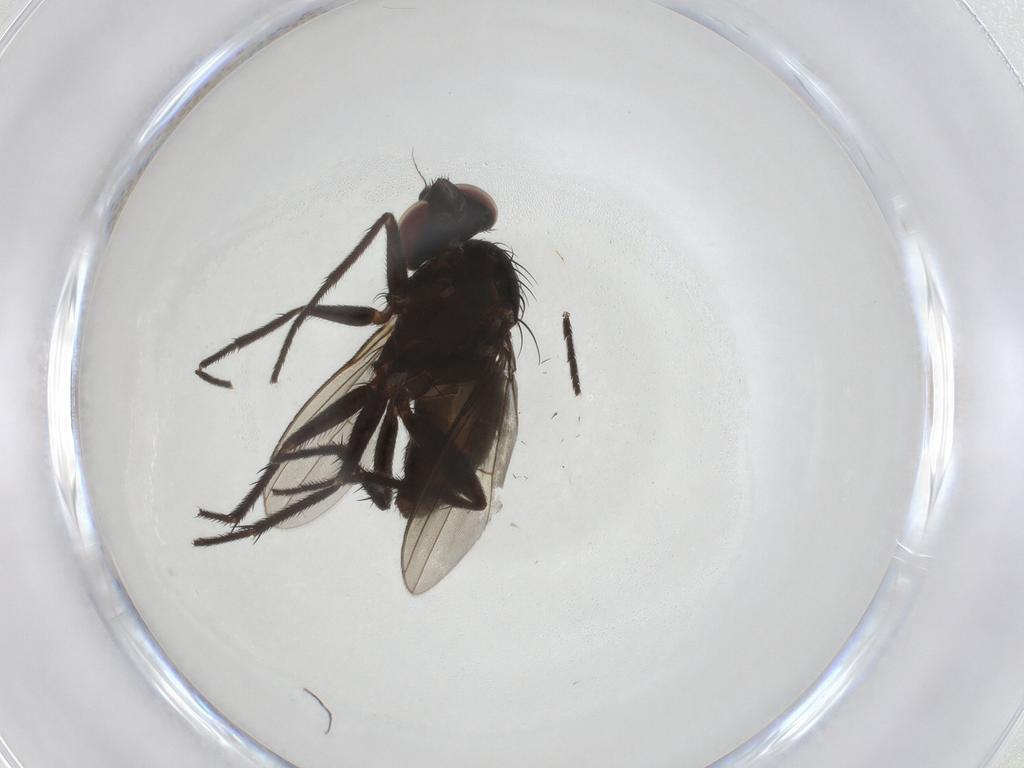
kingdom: Animalia
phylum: Arthropoda
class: Insecta
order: Diptera
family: Dolichopodidae
